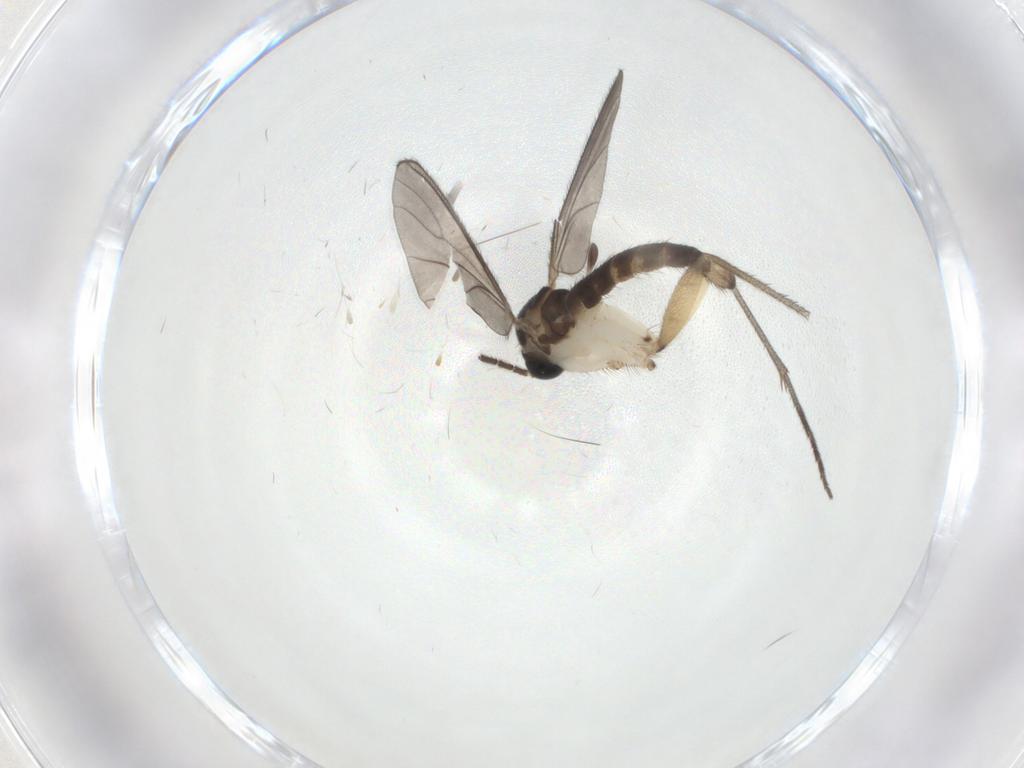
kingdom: Animalia
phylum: Arthropoda
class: Insecta
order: Diptera
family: Sciaridae
